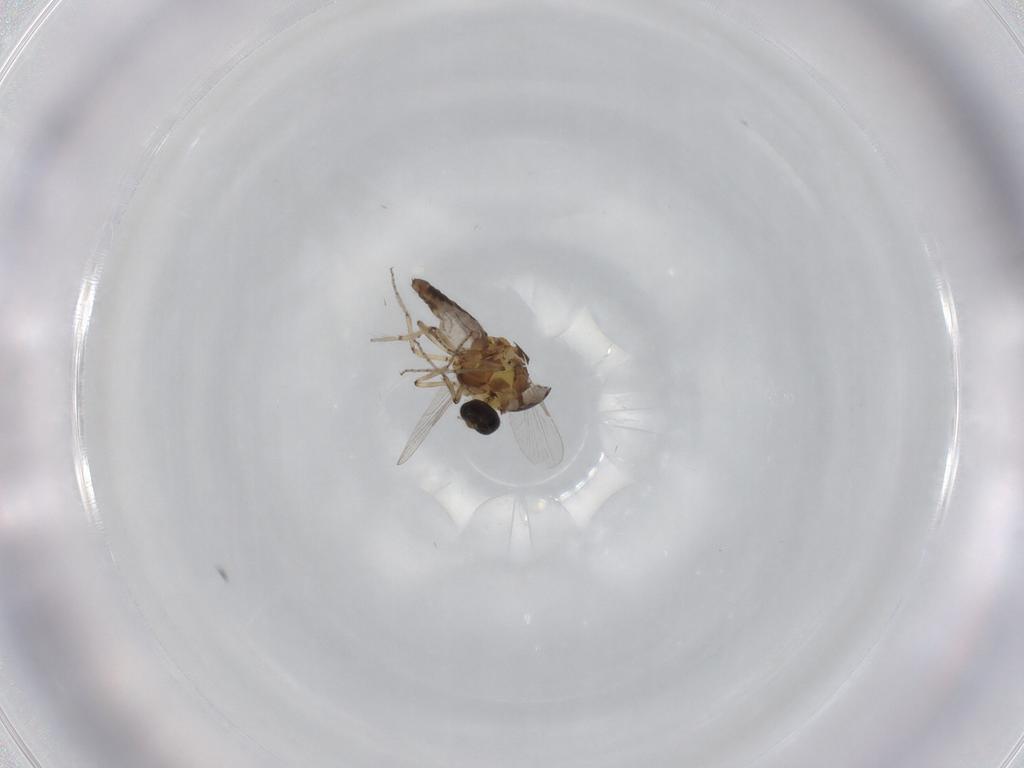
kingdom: Animalia
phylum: Arthropoda
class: Insecta
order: Diptera
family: Ceratopogonidae
